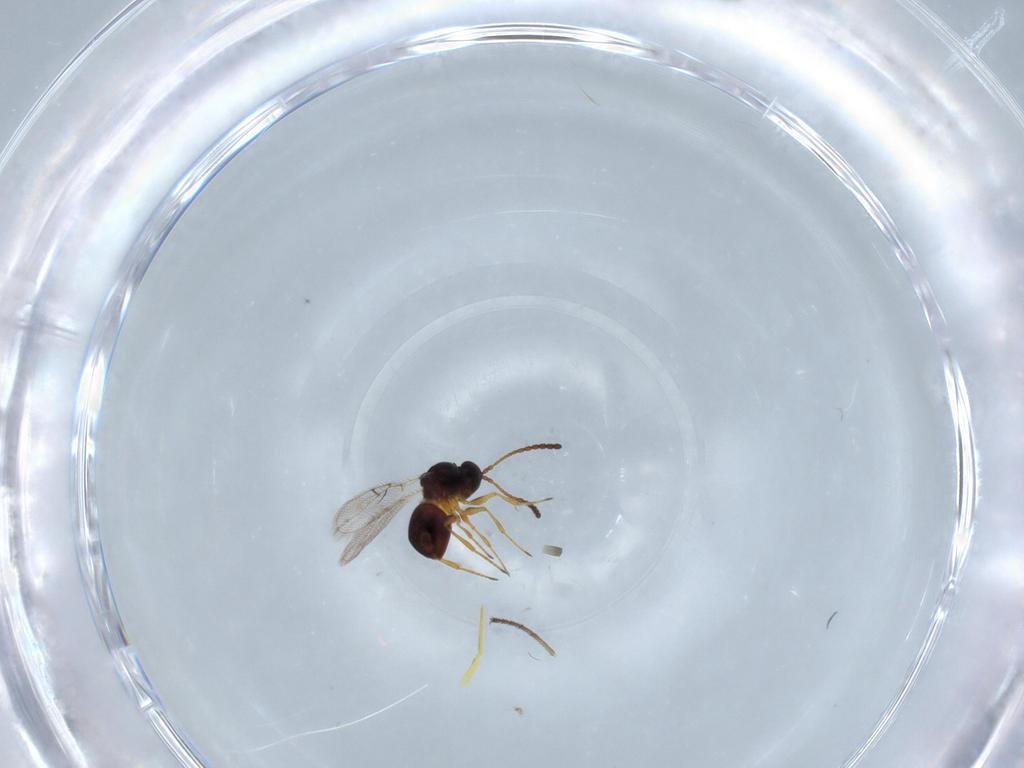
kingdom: Animalia
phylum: Arthropoda
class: Insecta
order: Hymenoptera
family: Figitidae
